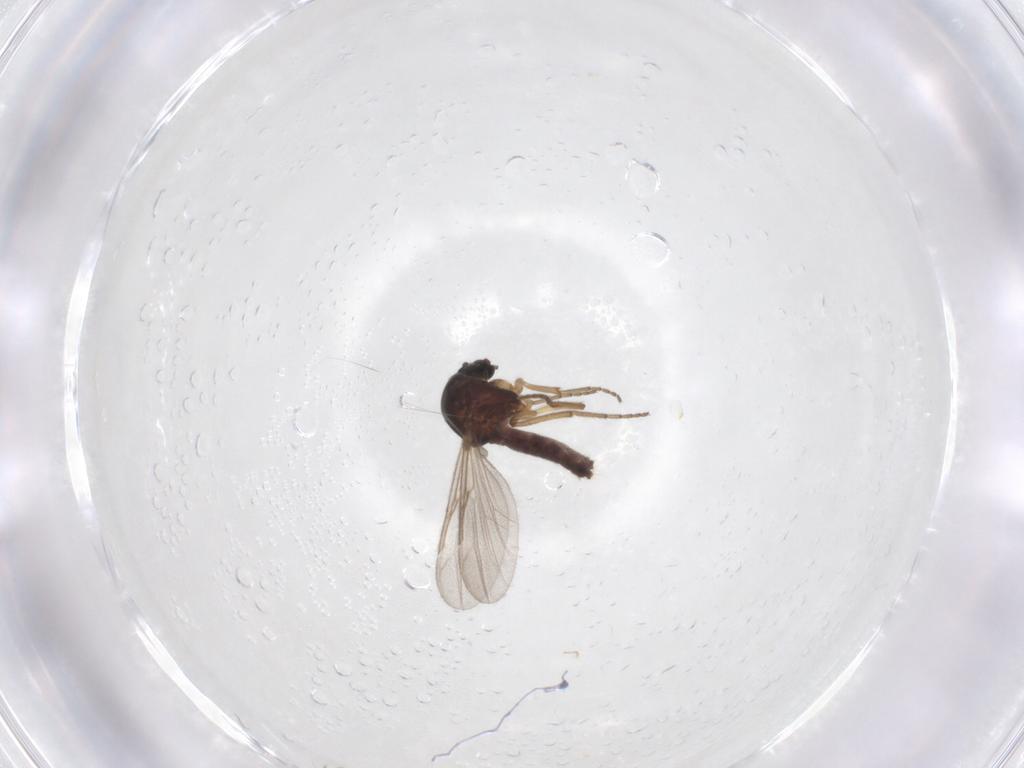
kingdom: Animalia
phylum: Arthropoda
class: Insecta
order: Diptera
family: Ceratopogonidae
